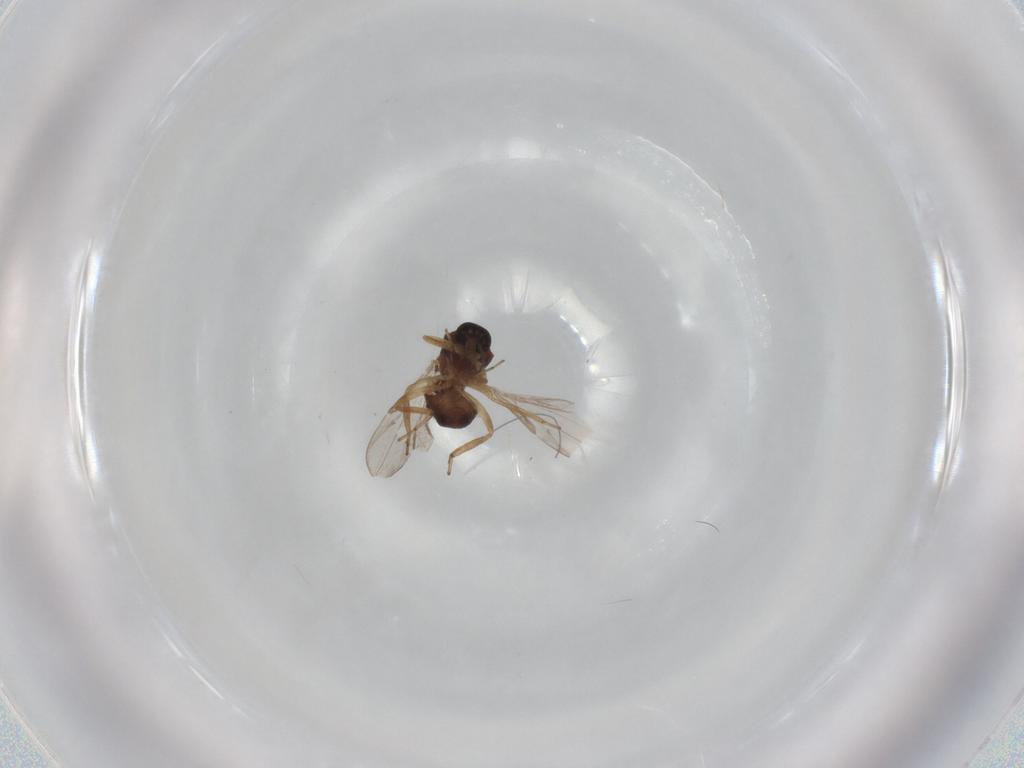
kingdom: Animalia
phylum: Arthropoda
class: Insecta
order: Diptera
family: Ceratopogonidae
